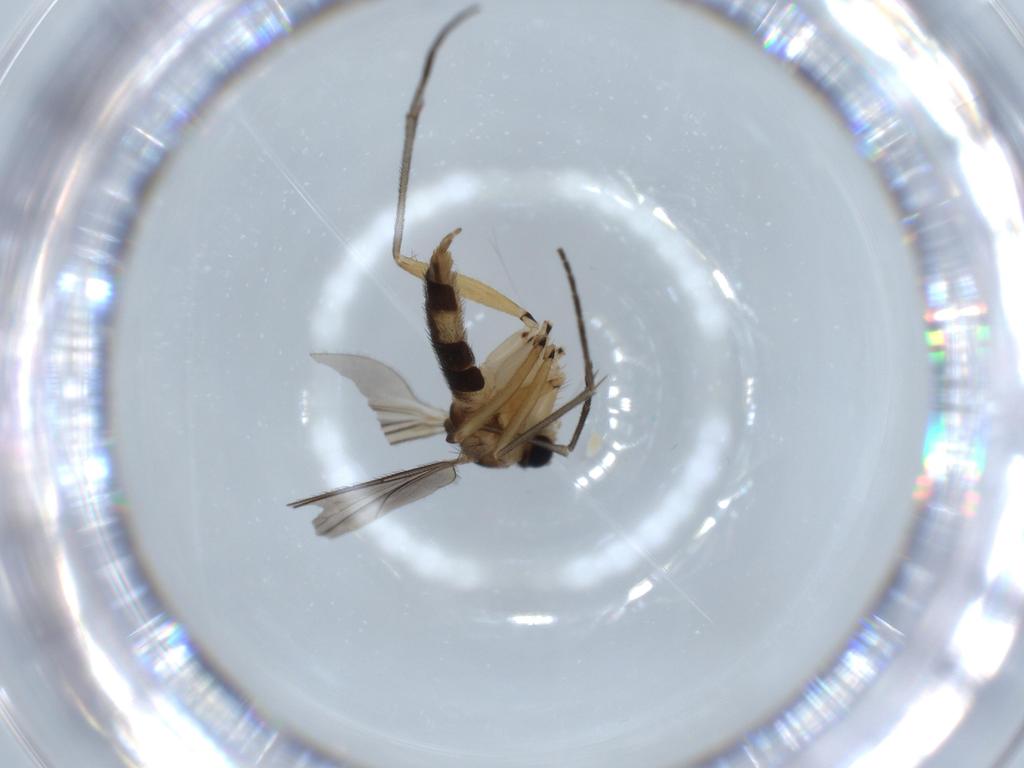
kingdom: Animalia
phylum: Arthropoda
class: Insecta
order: Diptera
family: Sciaridae
